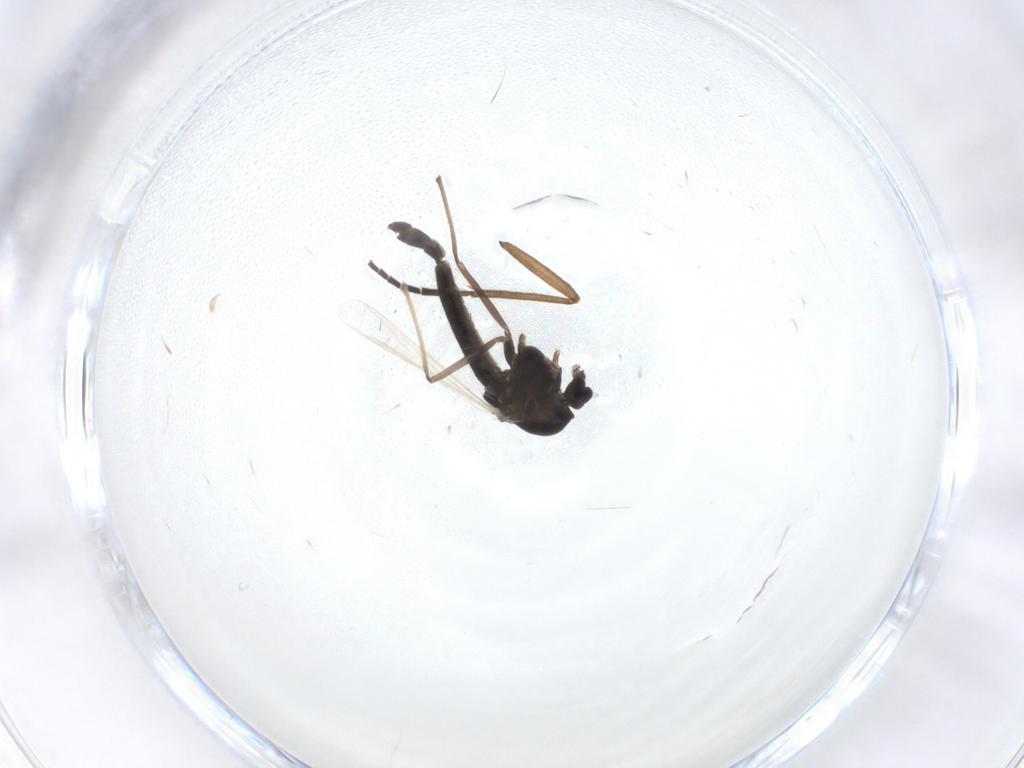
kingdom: Animalia
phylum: Arthropoda
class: Insecta
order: Diptera
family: Chironomidae
